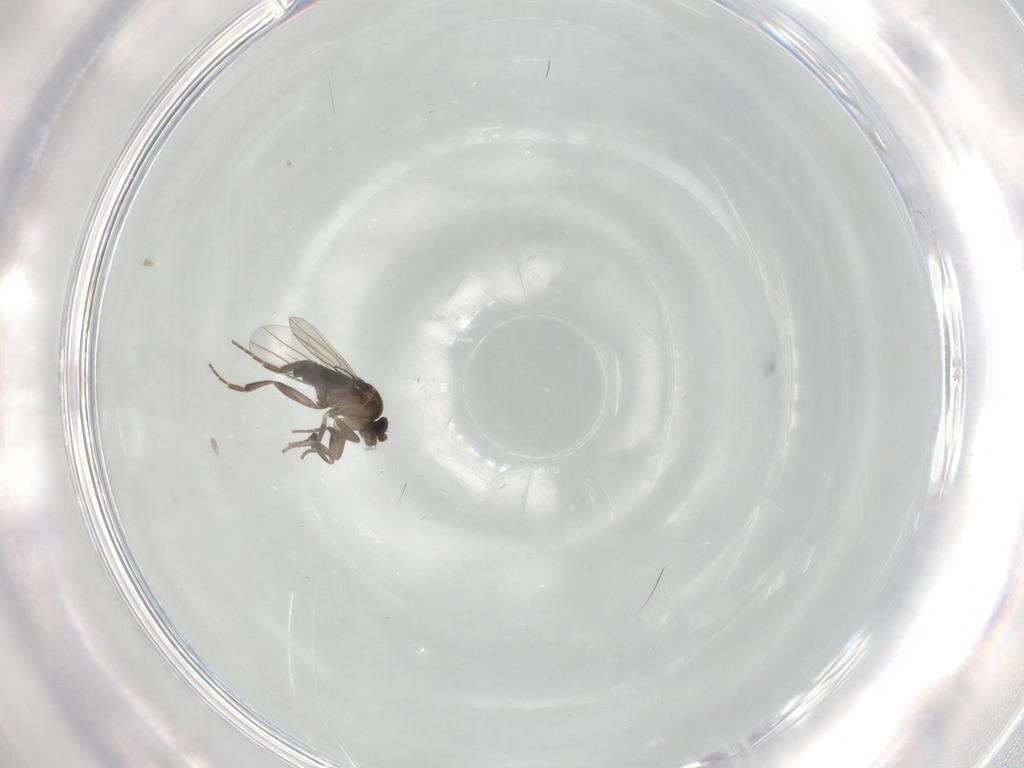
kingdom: Animalia
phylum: Arthropoda
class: Insecta
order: Diptera
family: Phoridae
